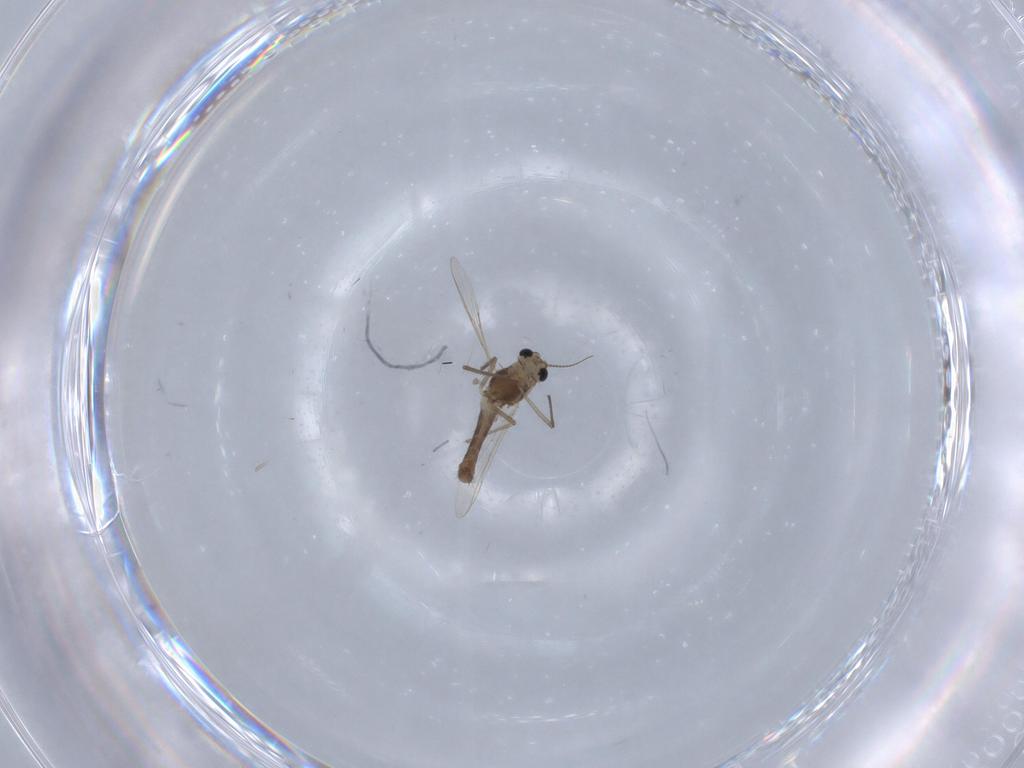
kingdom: Animalia
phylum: Arthropoda
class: Insecta
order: Diptera
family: Chironomidae
